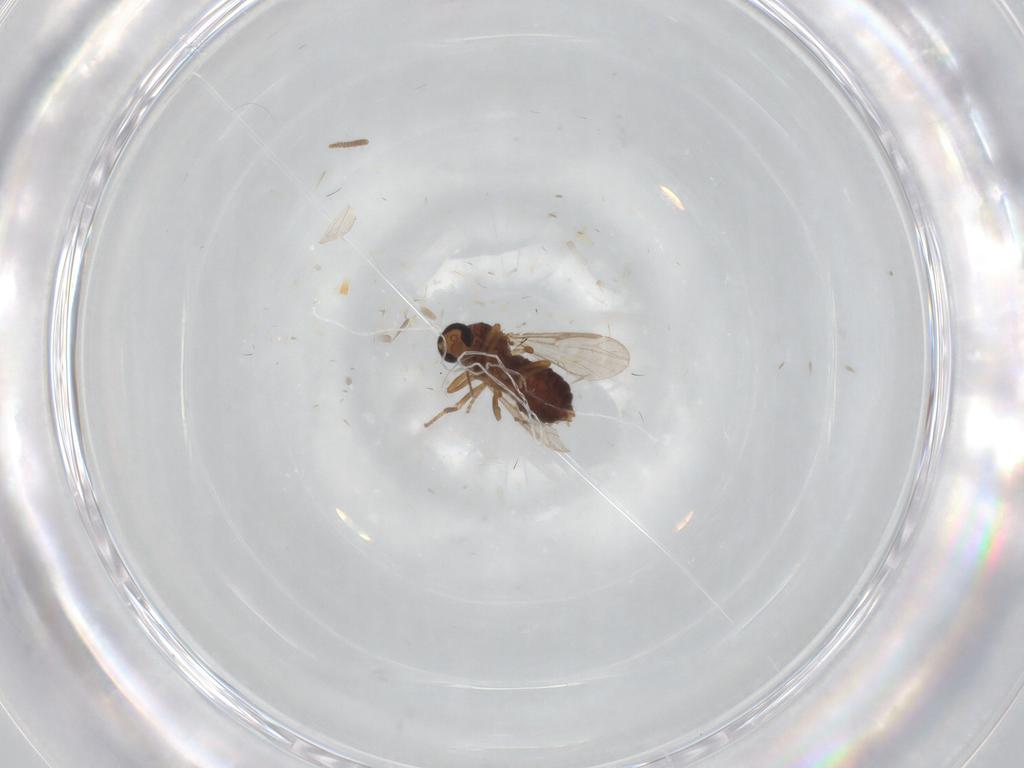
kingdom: Animalia
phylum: Arthropoda
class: Insecta
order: Diptera
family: Ceratopogonidae
